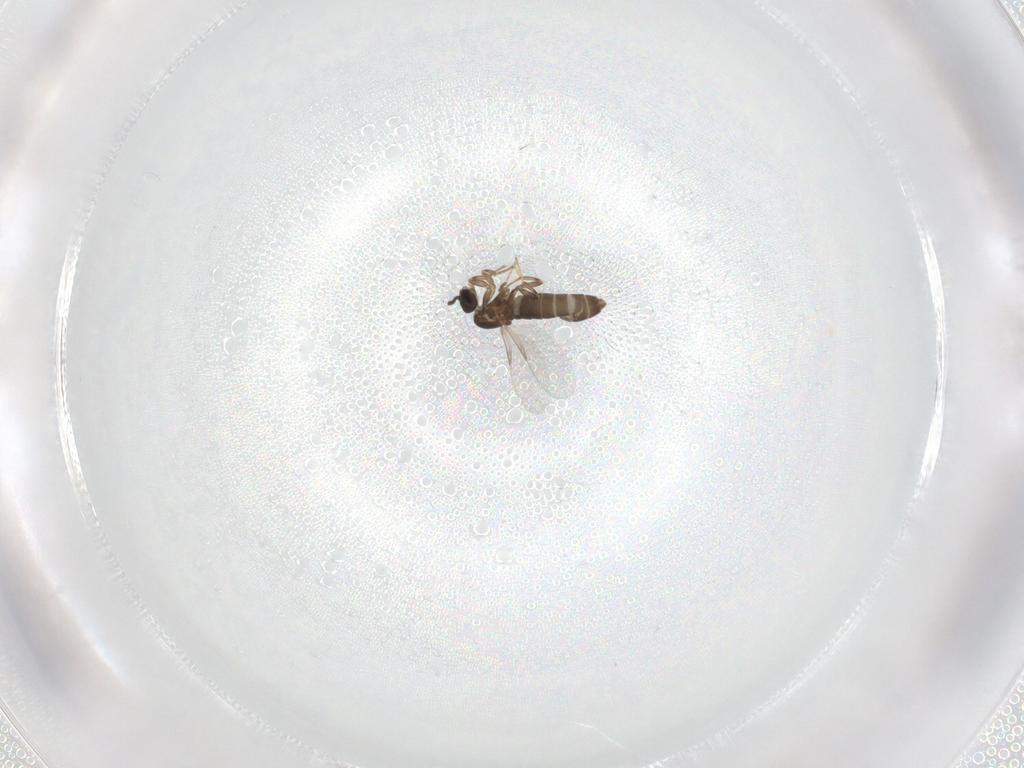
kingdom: Animalia
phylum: Arthropoda
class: Insecta
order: Diptera
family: Scatopsidae
